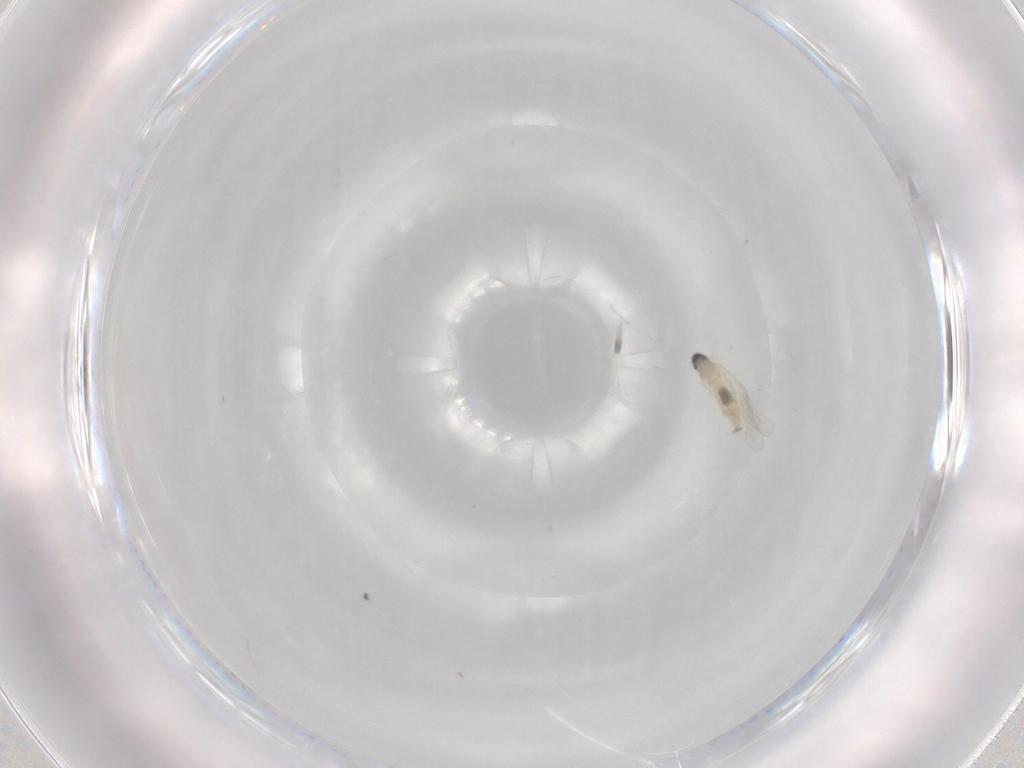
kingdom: Animalia
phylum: Arthropoda
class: Insecta
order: Diptera
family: Cecidomyiidae
